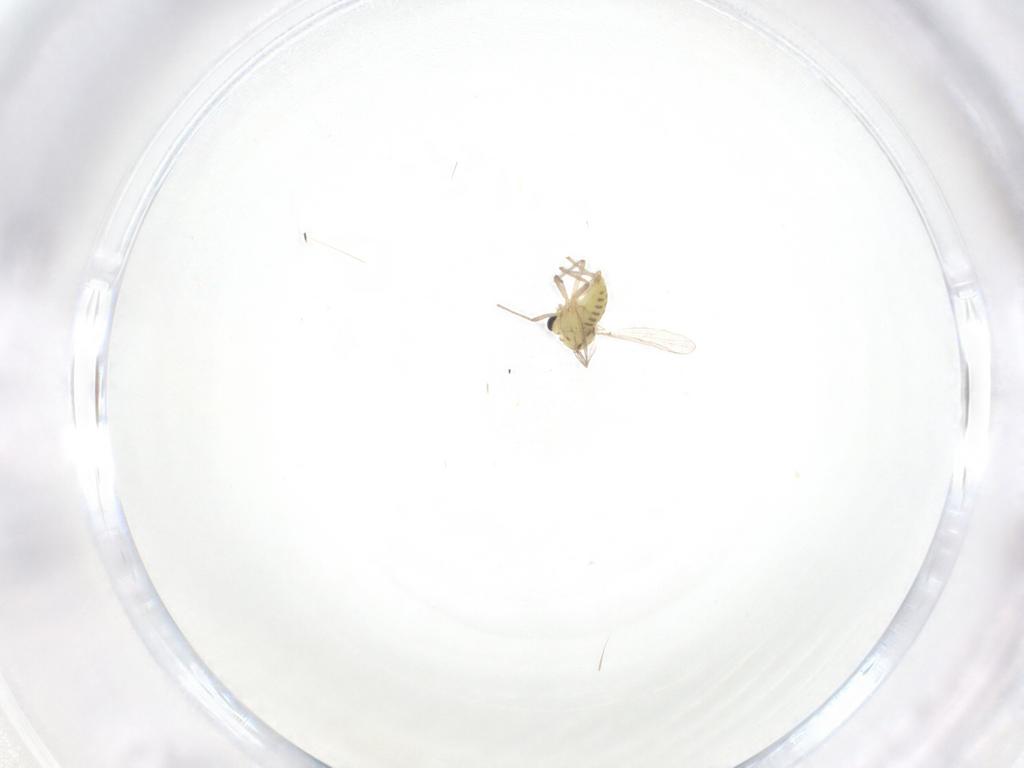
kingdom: Animalia
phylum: Arthropoda
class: Insecta
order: Diptera
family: Chironomidae
